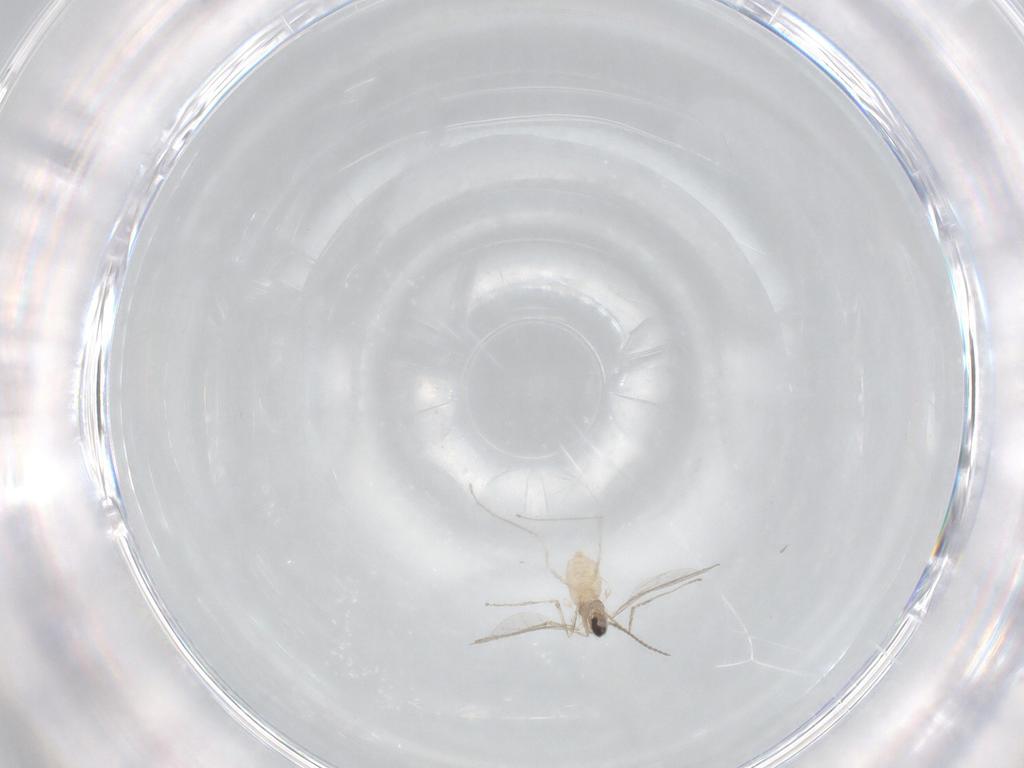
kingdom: Animalia
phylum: Arthropoda
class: Insecta
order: Diptera
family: Cecidomyiidae
